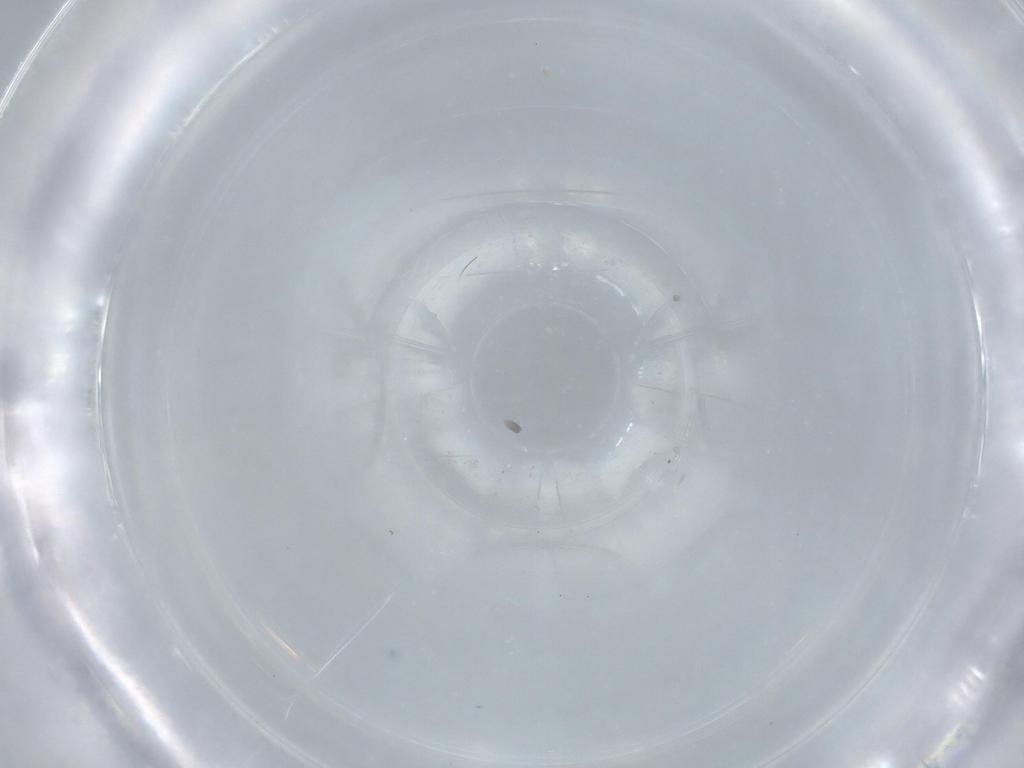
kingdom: Animalia
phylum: Arthropoda
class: Insecta
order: Hymenoptera
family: Mymaridae
